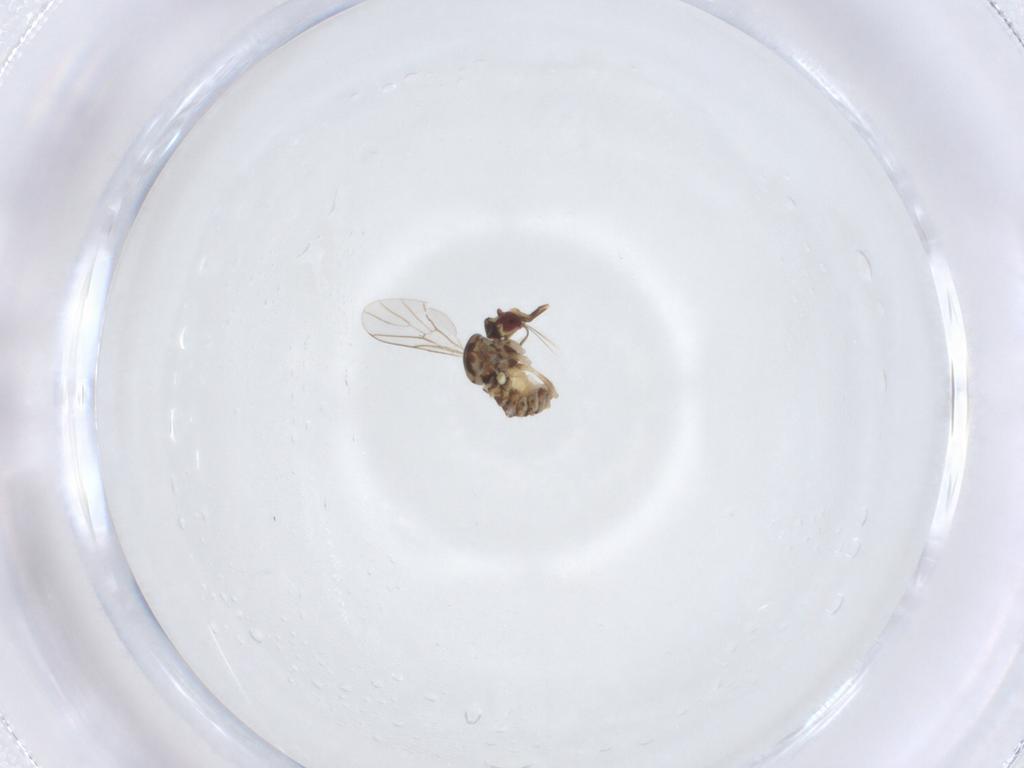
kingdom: Animalia
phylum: Arthropoda
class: Insecta
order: Diptera
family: Bombyliidae
